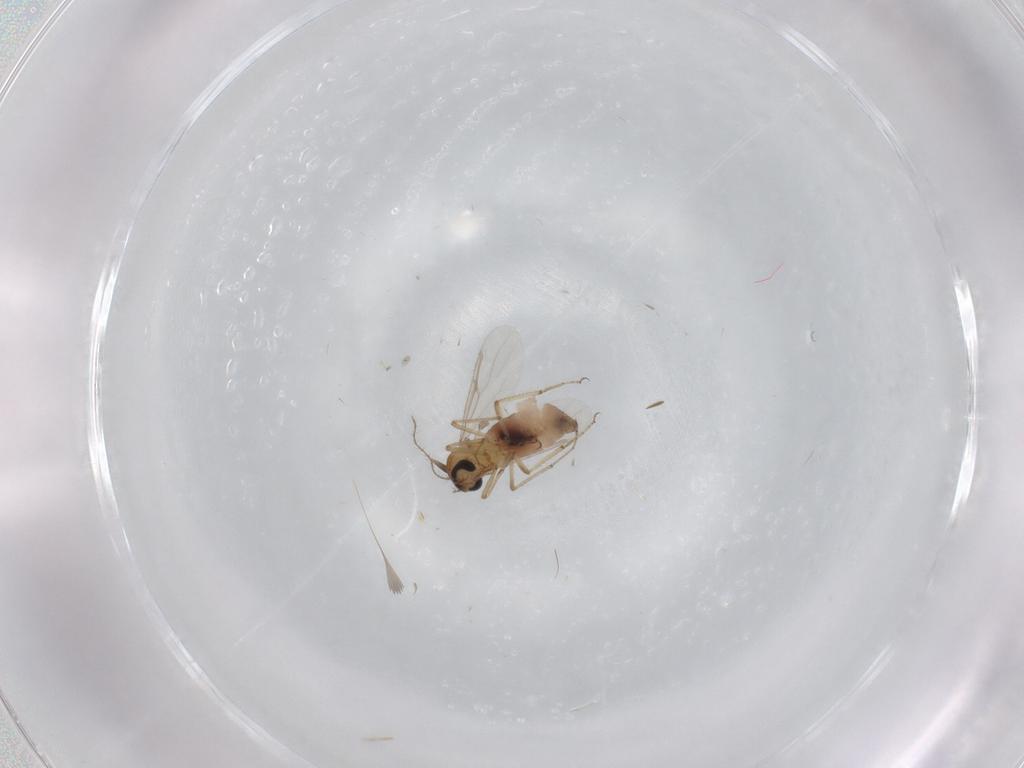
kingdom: Animalia
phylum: Arthropoda
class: Insecta
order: Diptera
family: Ceratopogonidae
